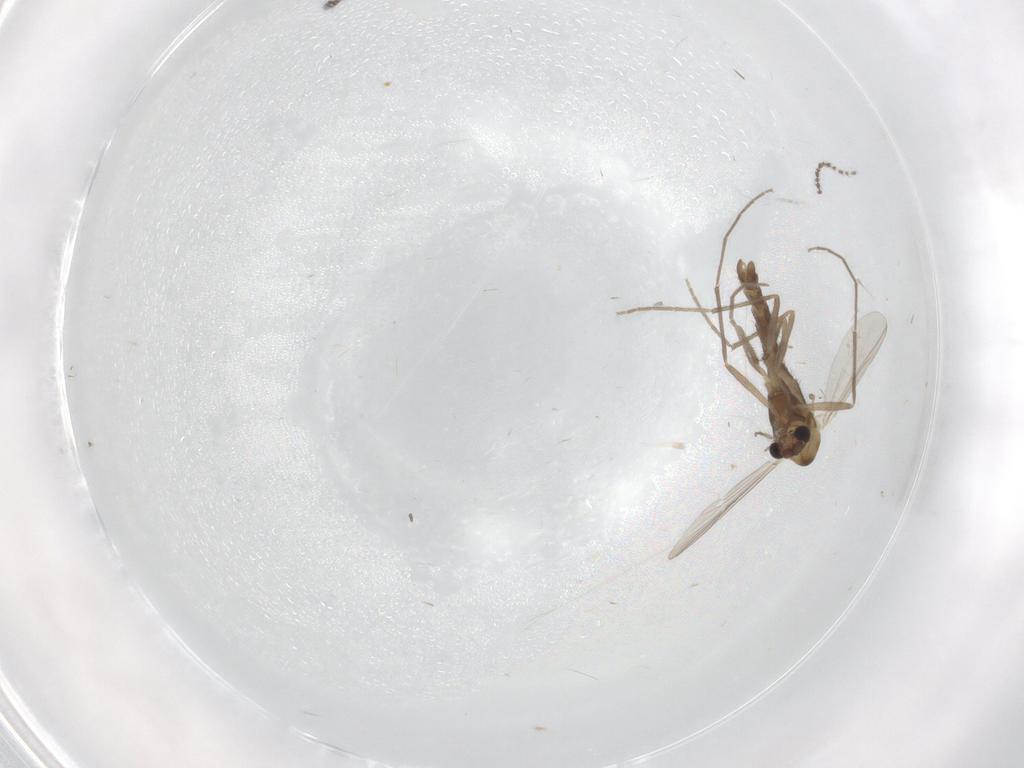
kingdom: Animalia
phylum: Arthropoda
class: Insecta
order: Diptera
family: Chironomidae
